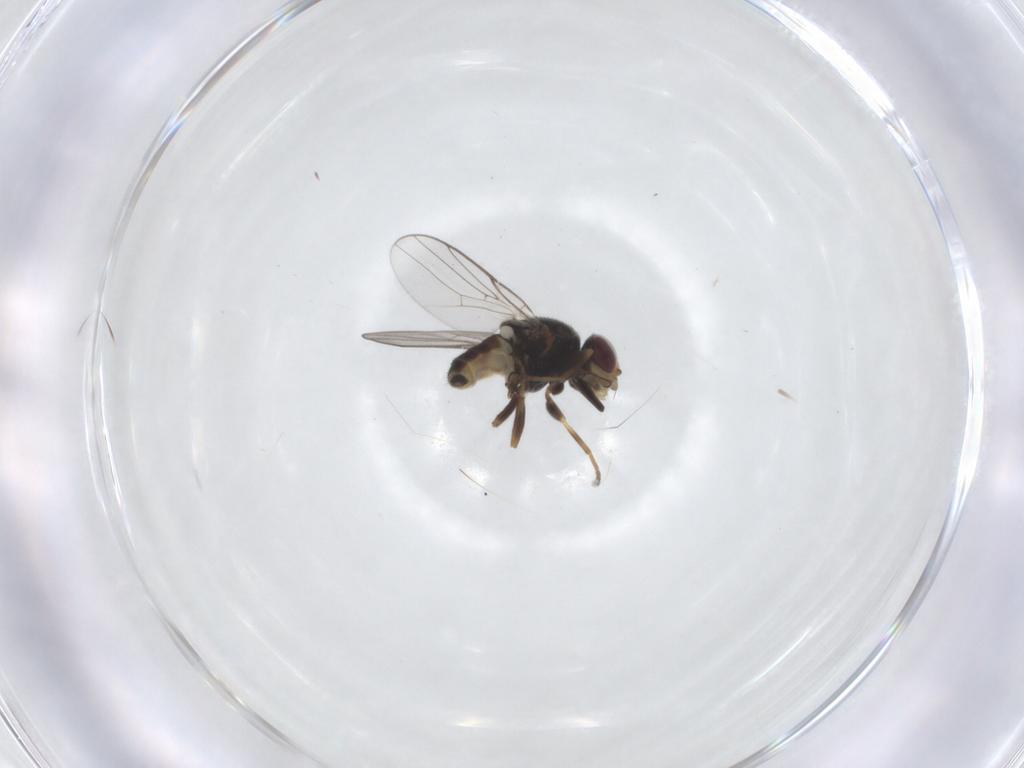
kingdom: Animalia
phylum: Arthropoda
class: Insecta
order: Diptera
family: Chloropidae
